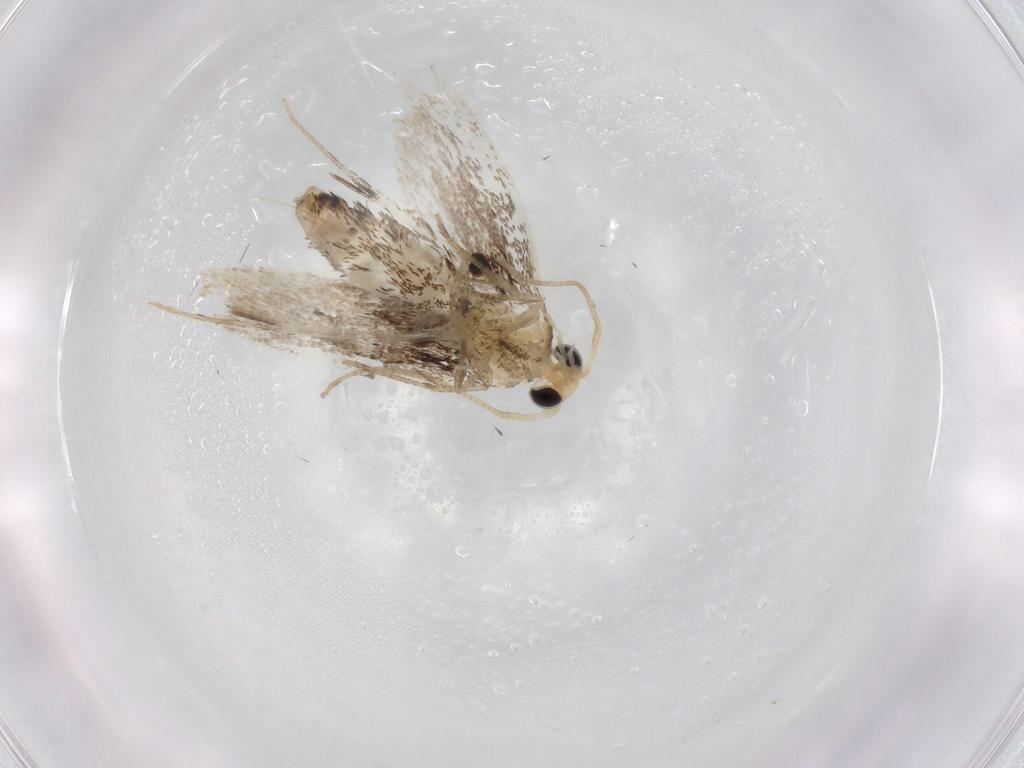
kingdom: Animalia
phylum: Arthropoda
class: Insecta
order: Lepidoptera
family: Dryadaulidae
